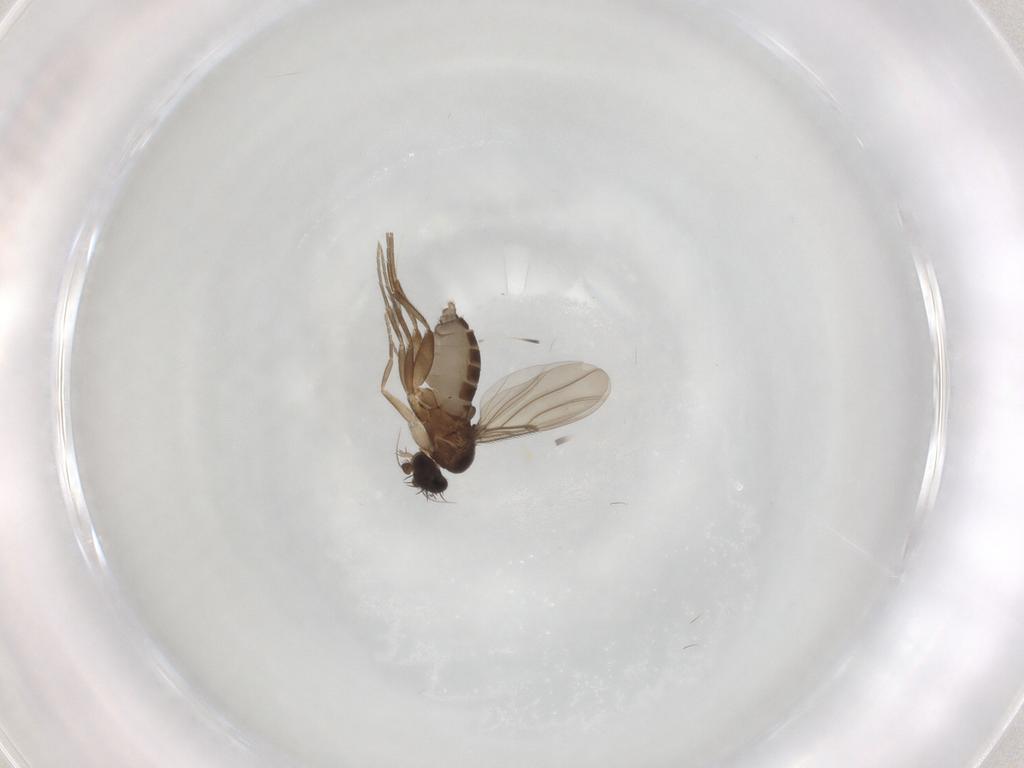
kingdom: Animalia
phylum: Arthropoda
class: Insecta
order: Diptera
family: Phoridae
